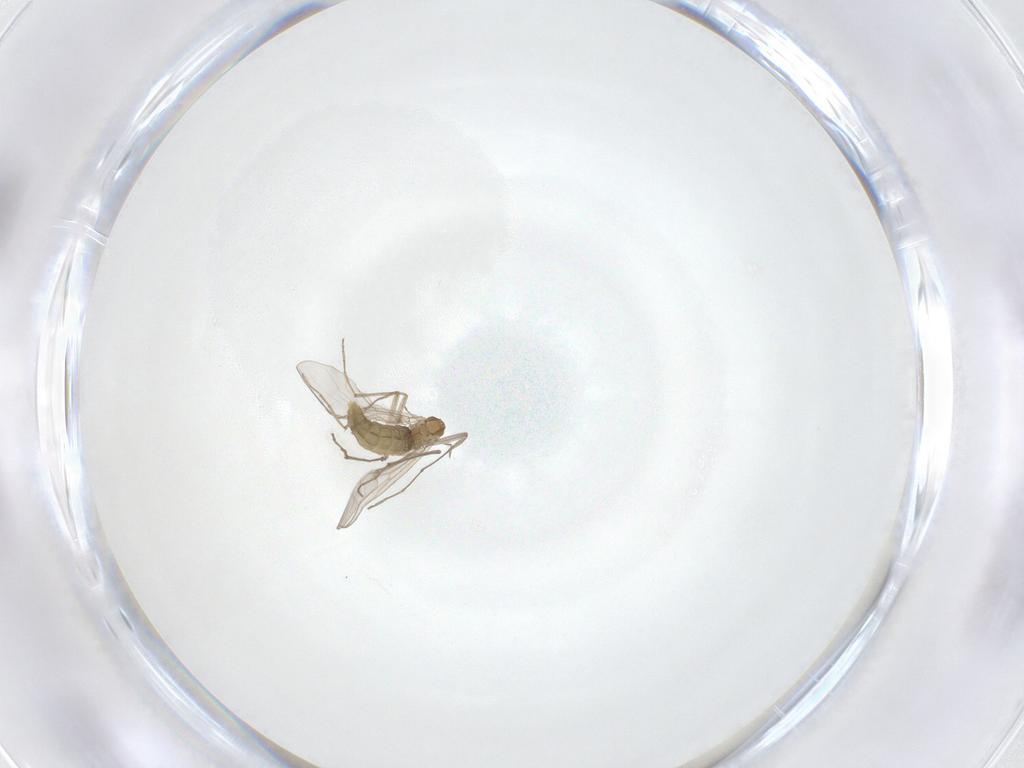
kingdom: Animalia
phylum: Arthropoda
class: Insecta
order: Diptera
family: Chironomidae
